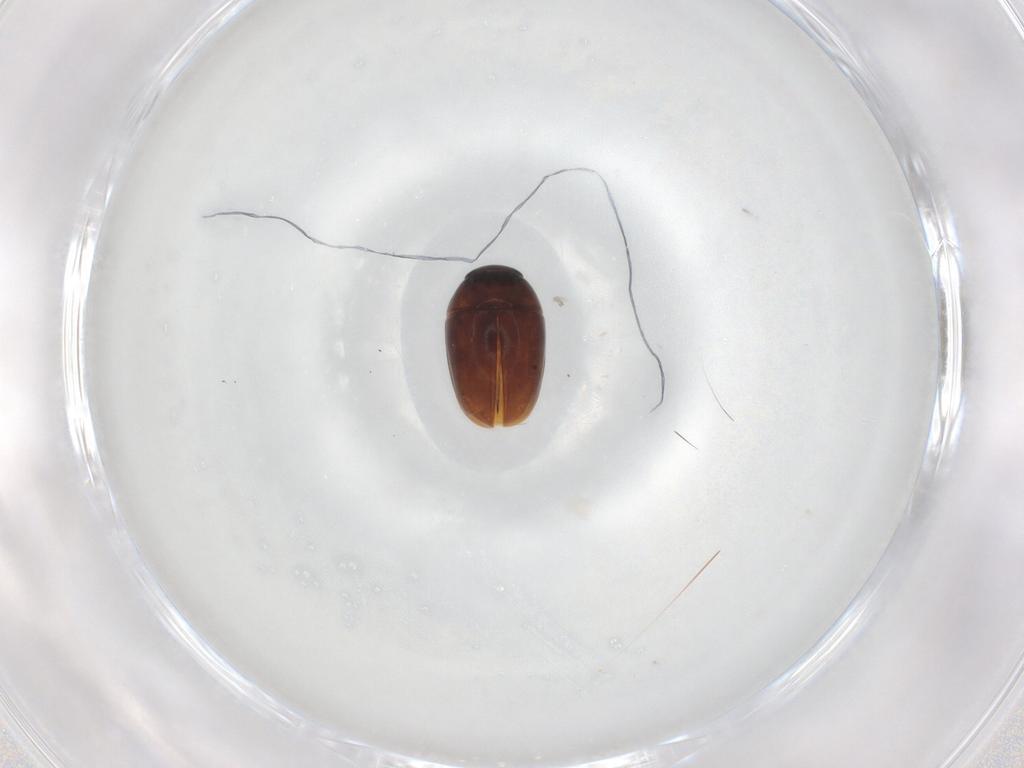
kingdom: Animalia
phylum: Arthropoda
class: Insecta
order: Coleoptera
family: Phalacridae
